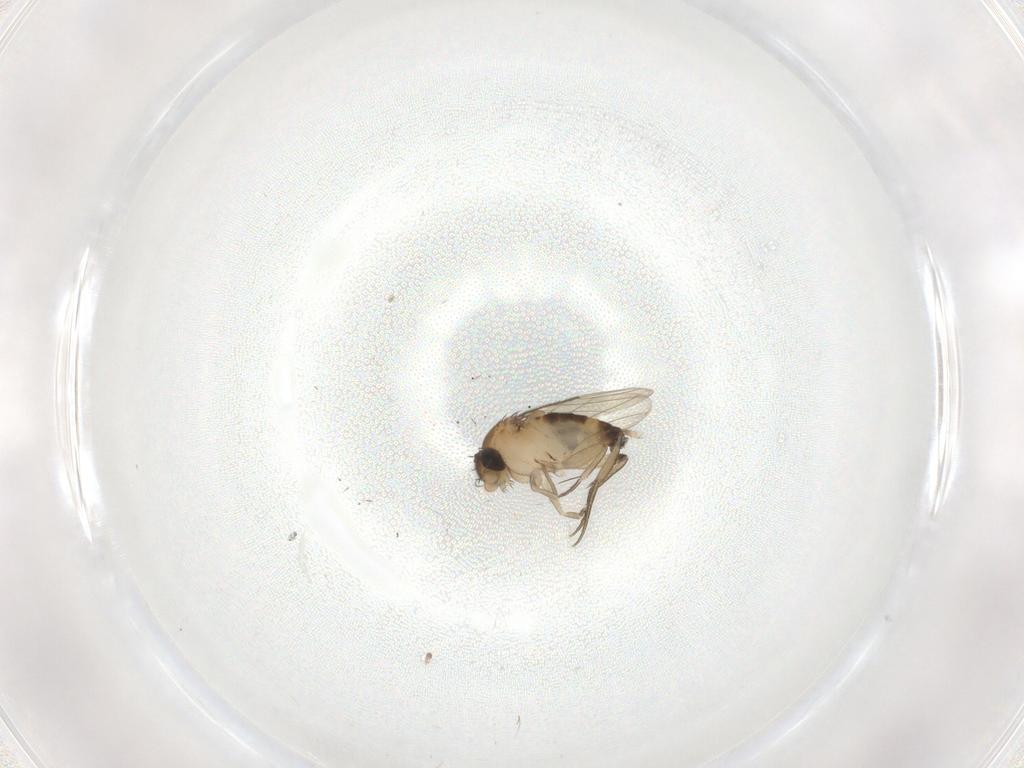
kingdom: Animalia
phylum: Arthropoda
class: Insecta
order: Diptera
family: Phoridae
